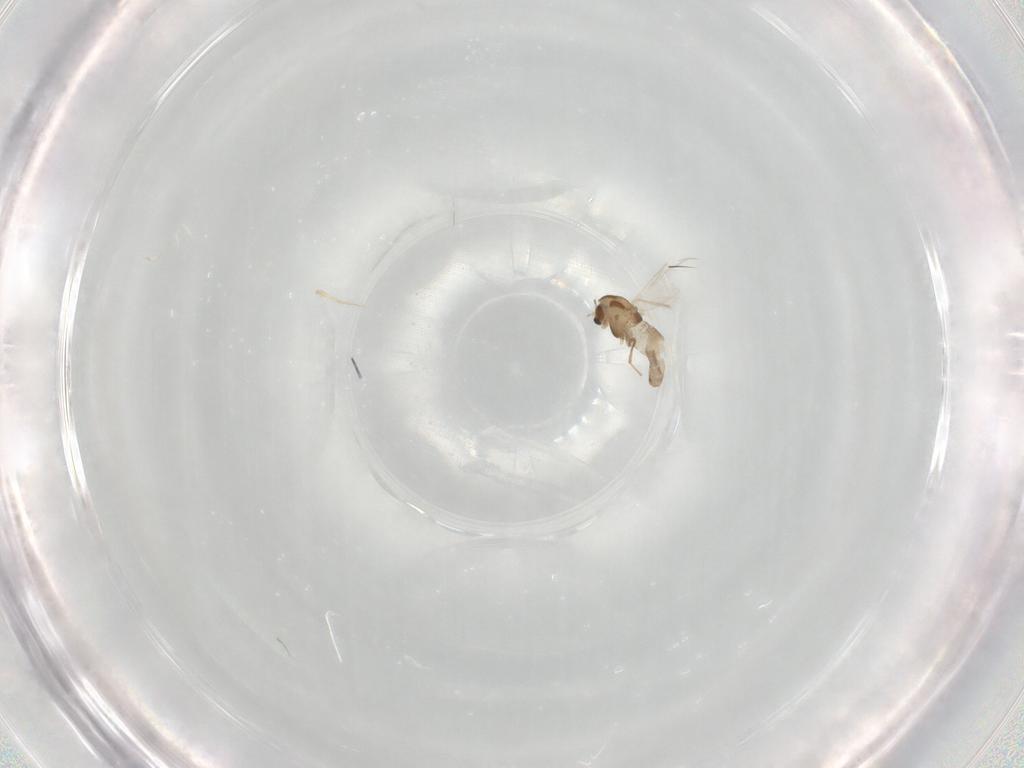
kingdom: Animalia
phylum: Arthropoda
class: Insecta
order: Diptera
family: Chironomidae
